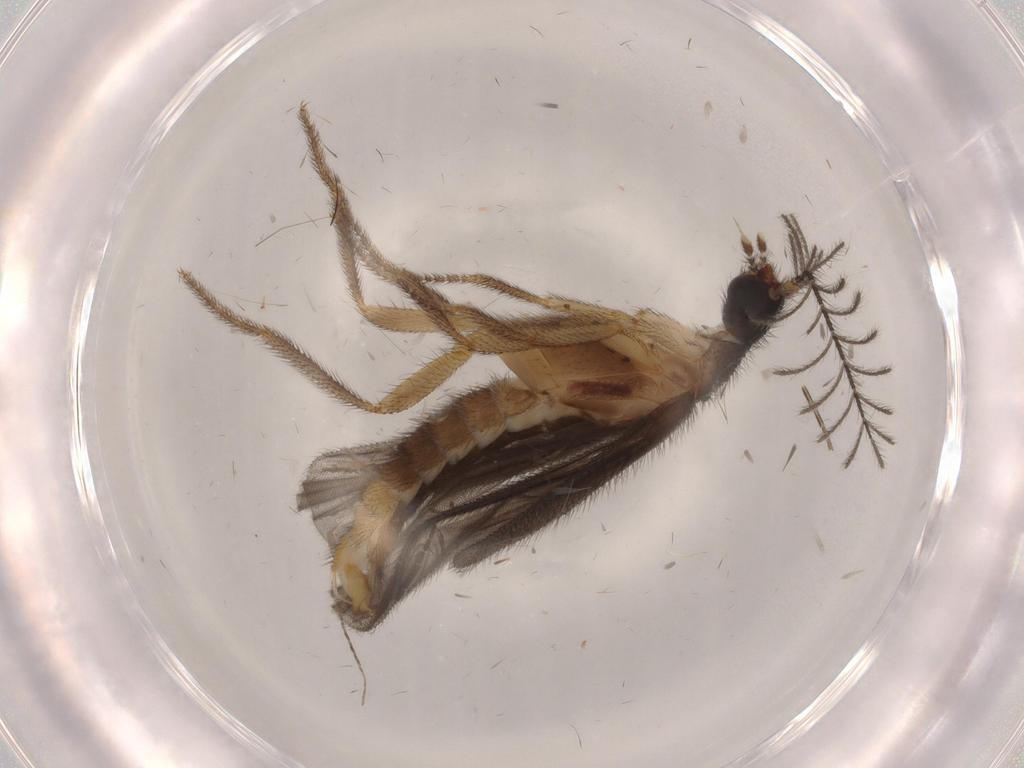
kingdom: Animalia
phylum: Arthropoda
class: Insecta
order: Coleoptera
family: Phengodidae
